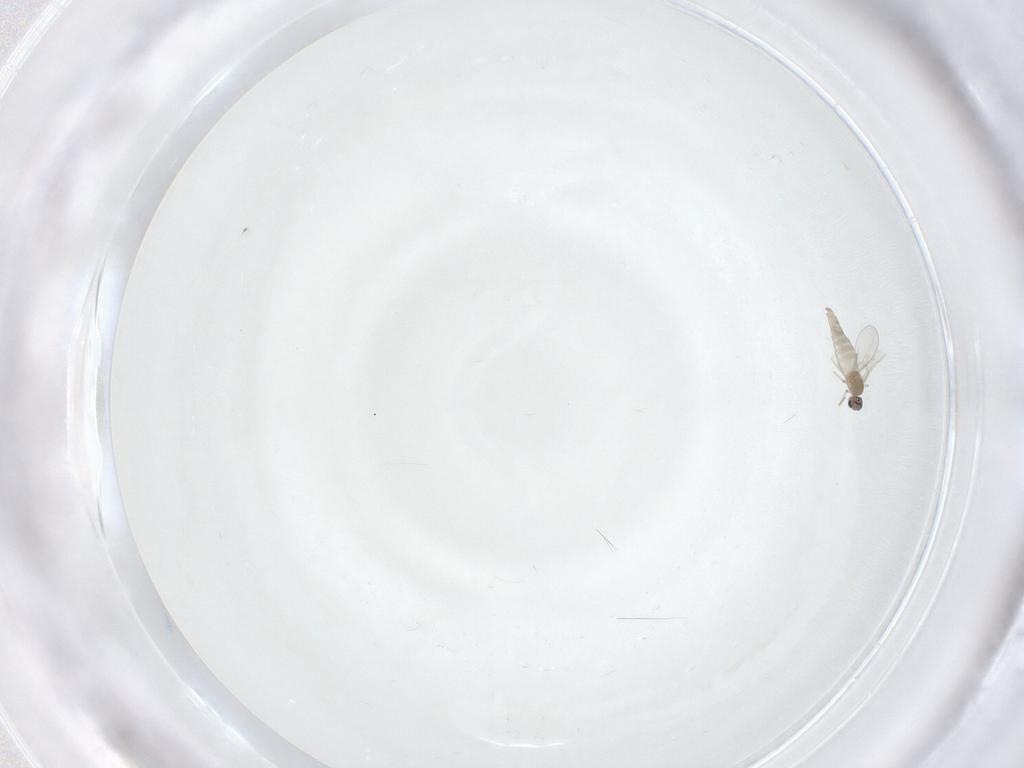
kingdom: Animalia
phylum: Arthropoda
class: Insecta
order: Diptera
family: Cecidomyiidae
